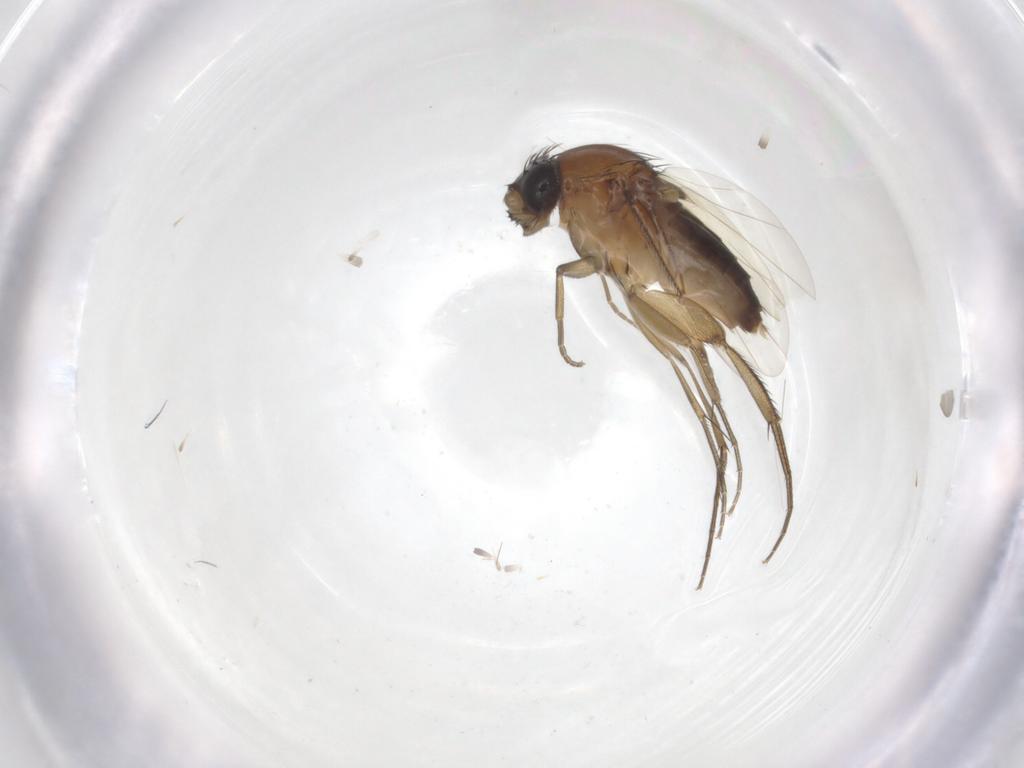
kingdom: Animalia
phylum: Arthropoda
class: Insecta
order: Diptera
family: Phoridae
